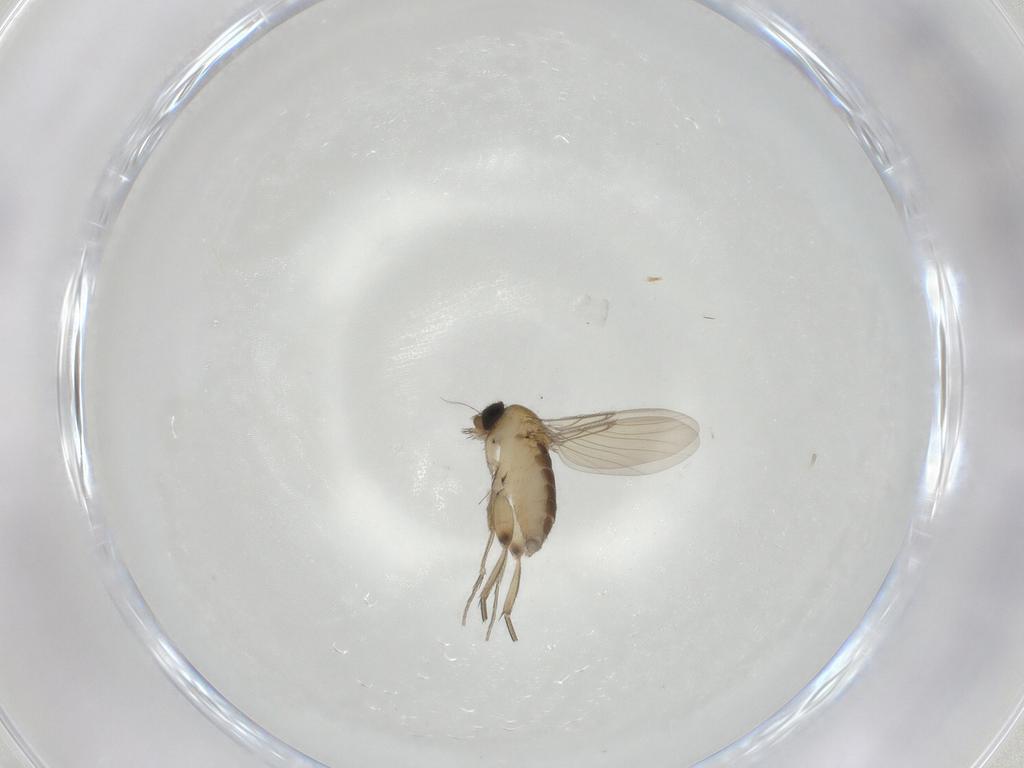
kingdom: Animalia
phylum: Arthropoda
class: Insecta
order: Diptera
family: Phoridae
